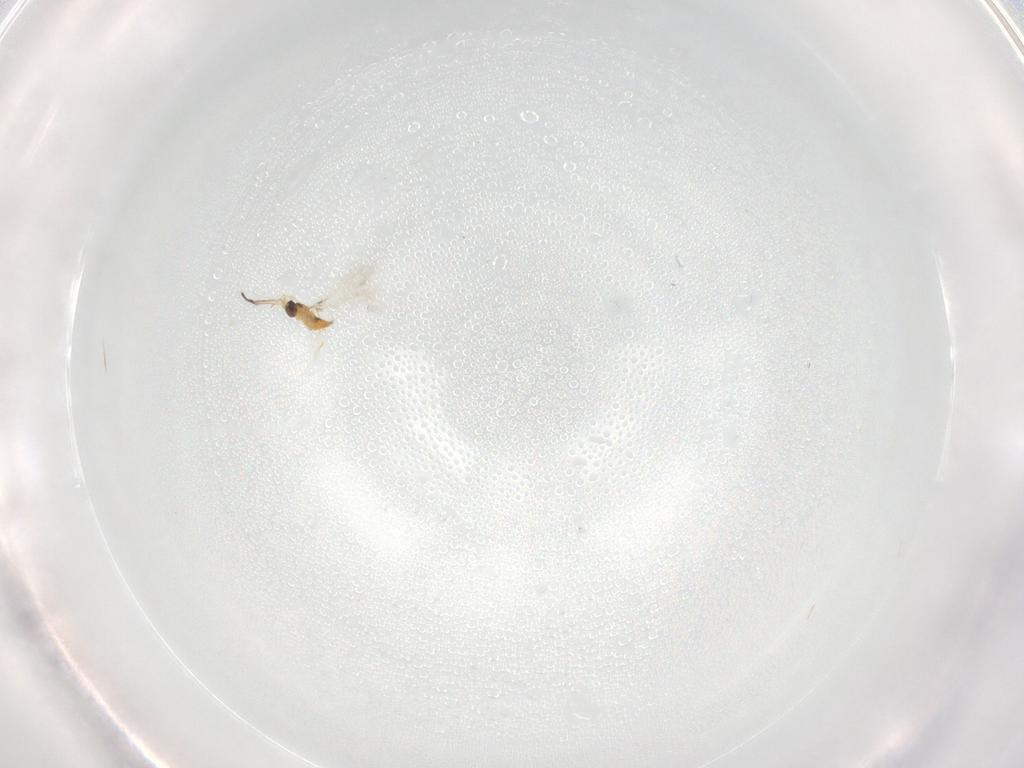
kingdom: Animalia
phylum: Arthropoda
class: Insecta
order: Hymenoptera
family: Mymaridae
